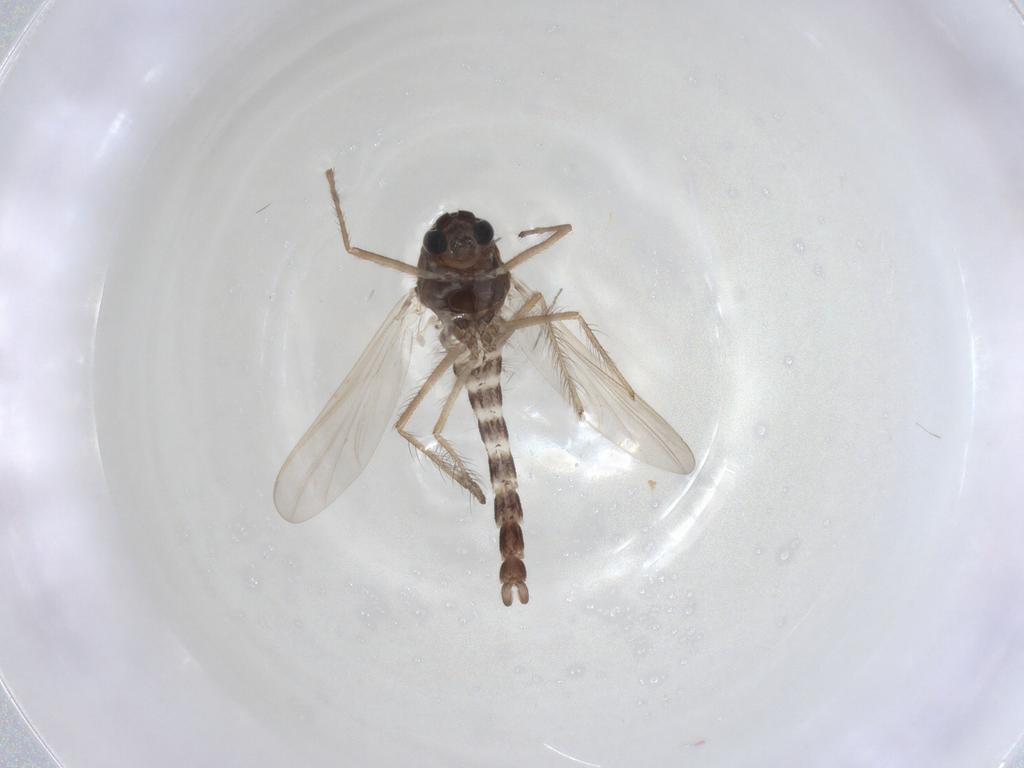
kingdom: Animalia
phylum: Arthropoda
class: Insecta
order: Diptera
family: Chironomidae
